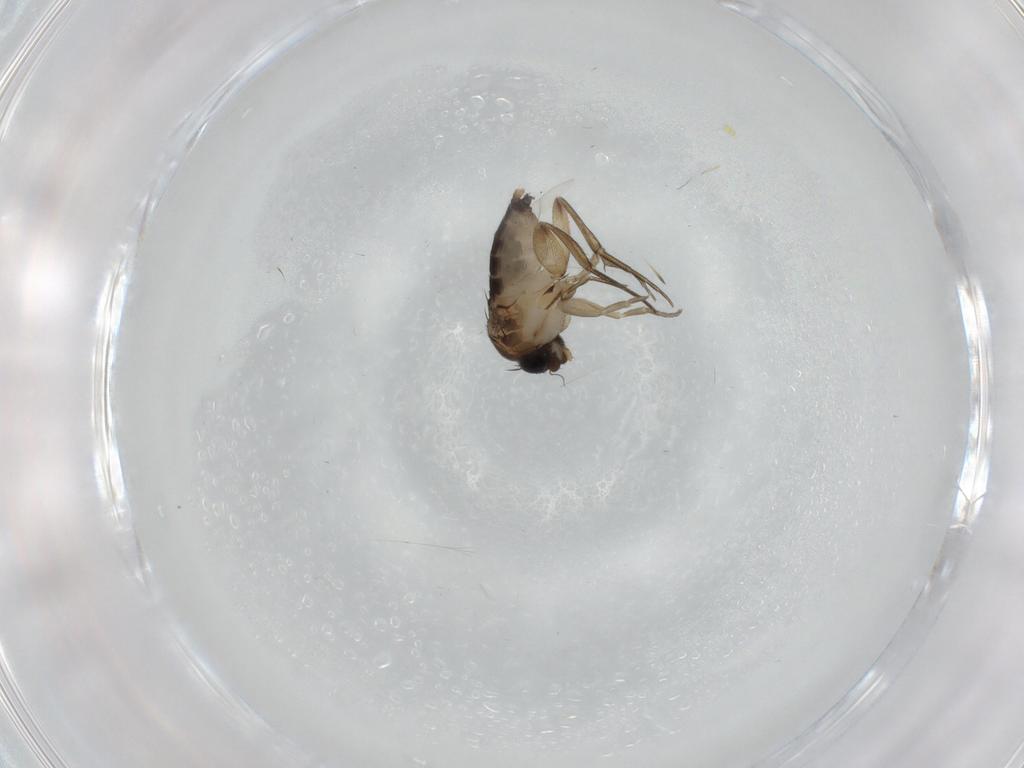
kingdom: Animalia
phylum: Arthropoda
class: Insecta
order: Diptera
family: Phoridae
